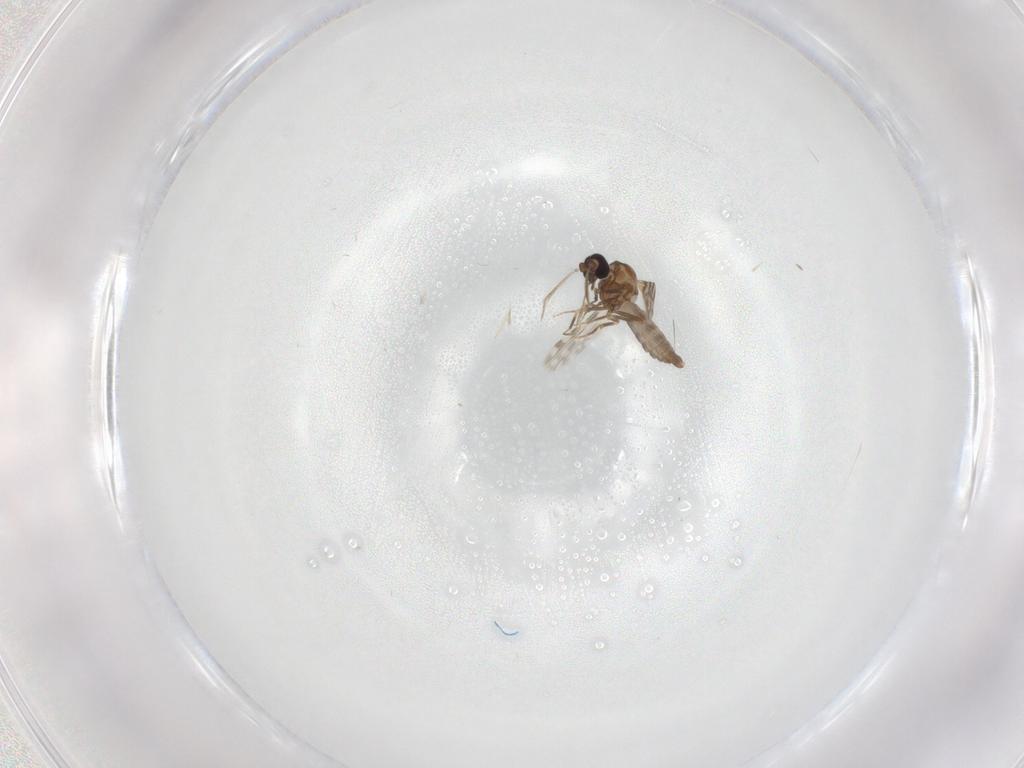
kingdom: Animalia
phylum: Arthropoda
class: Insecta
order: Diptera
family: Ceratopogonidae
